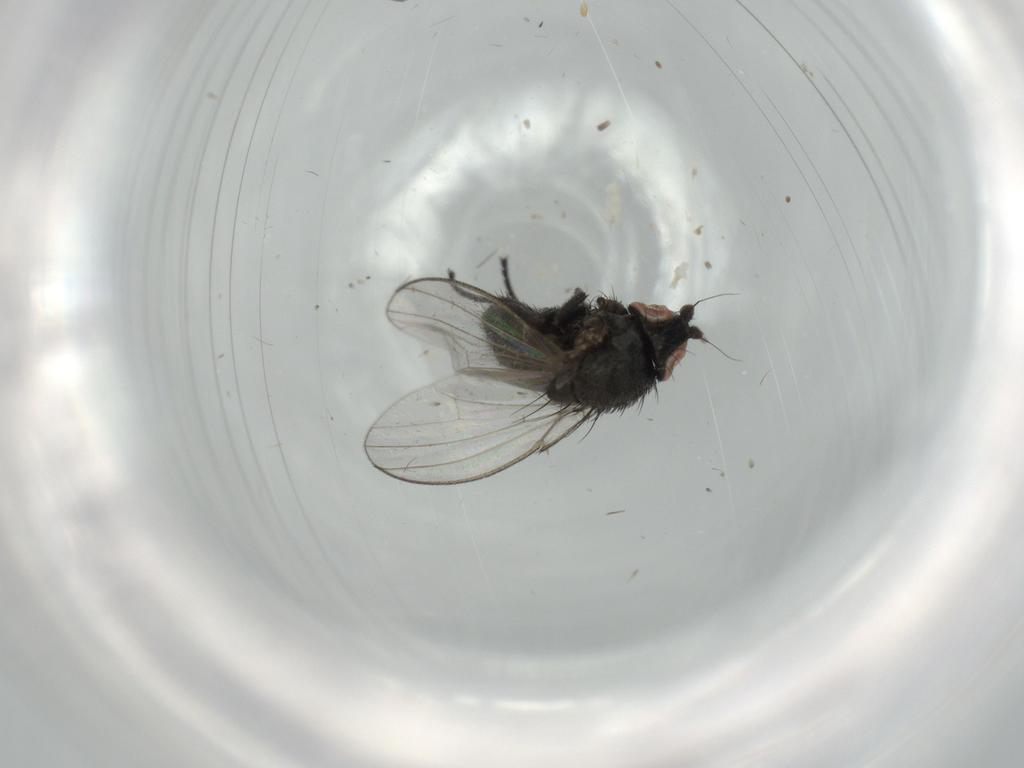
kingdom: Animalia
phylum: Arthropoda
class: Insecta
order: Diptera
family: Milichiidae
